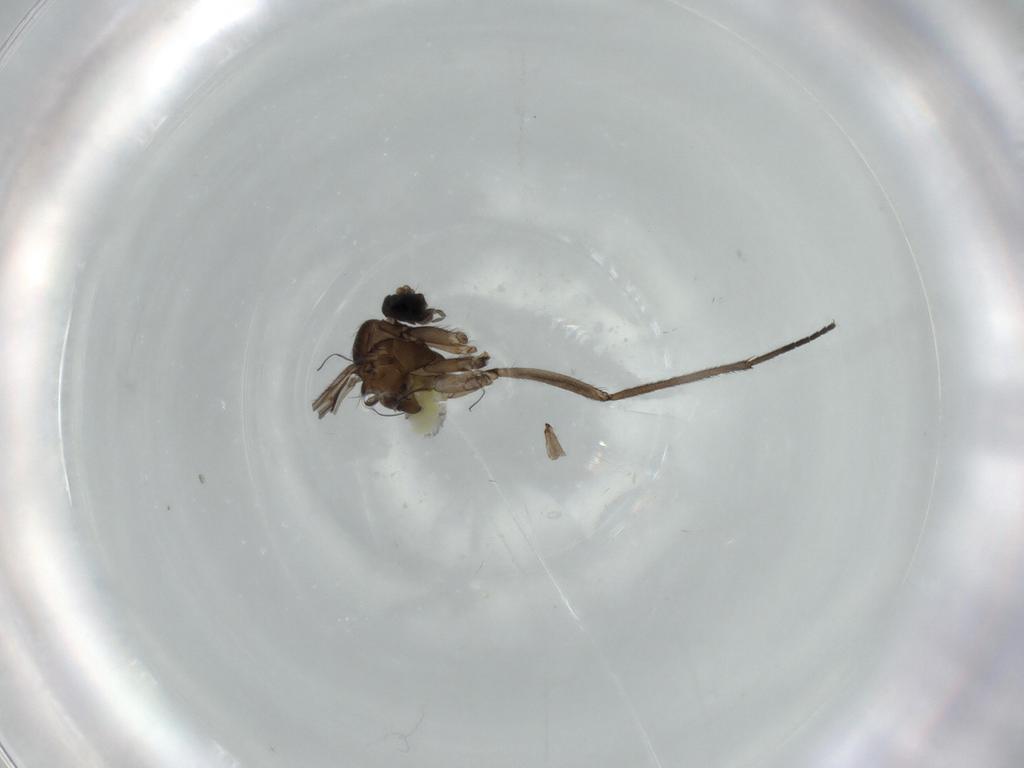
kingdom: Animalia
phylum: Arthropoda
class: Insecta
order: Diptera
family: Sciaridae
